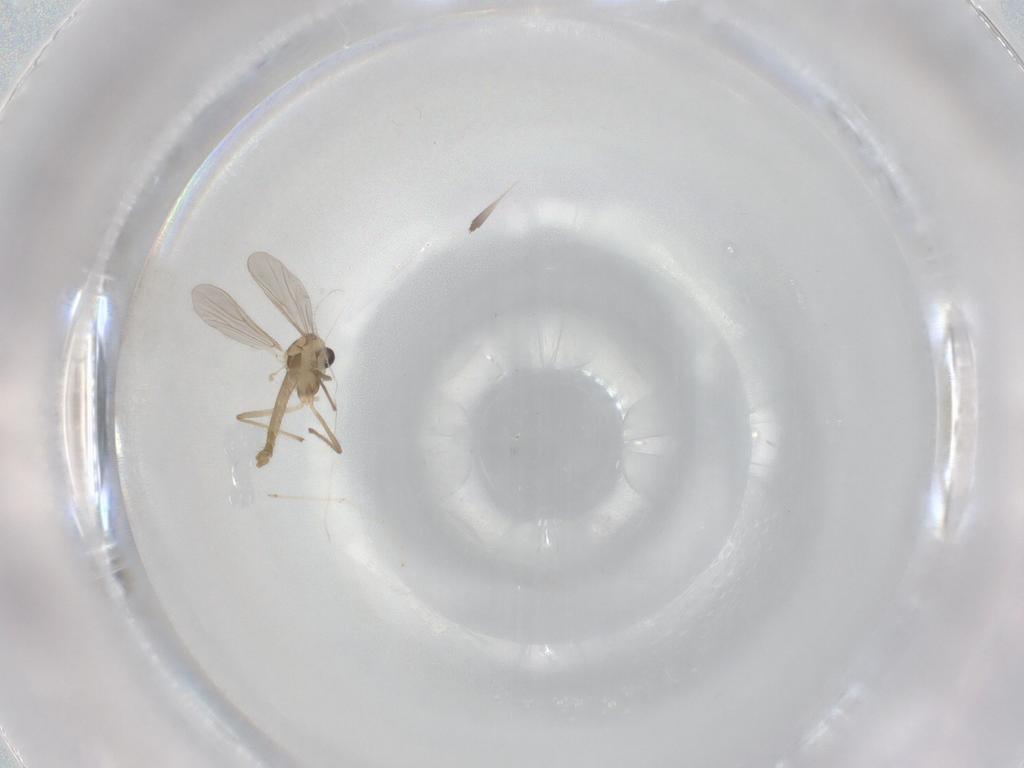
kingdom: Animalia
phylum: Arthropoda
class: Insecta
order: Diptera
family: Chironomidae
